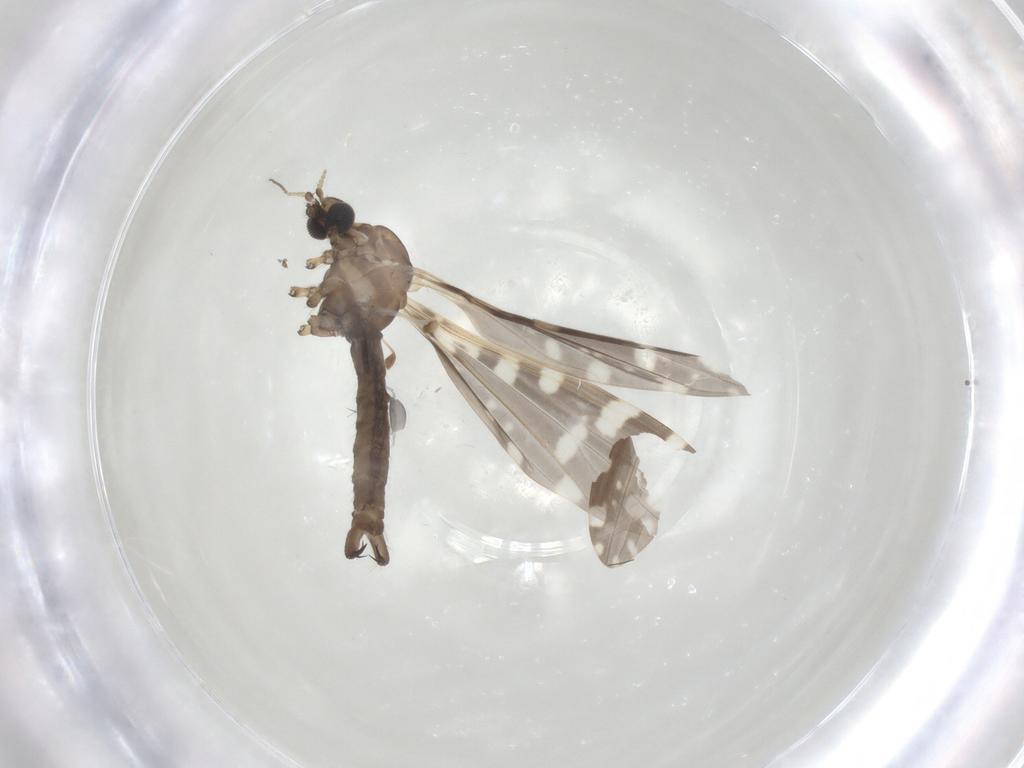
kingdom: Animalia
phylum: Arthropoda
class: Insecta
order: Diptera
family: Limoniidae
